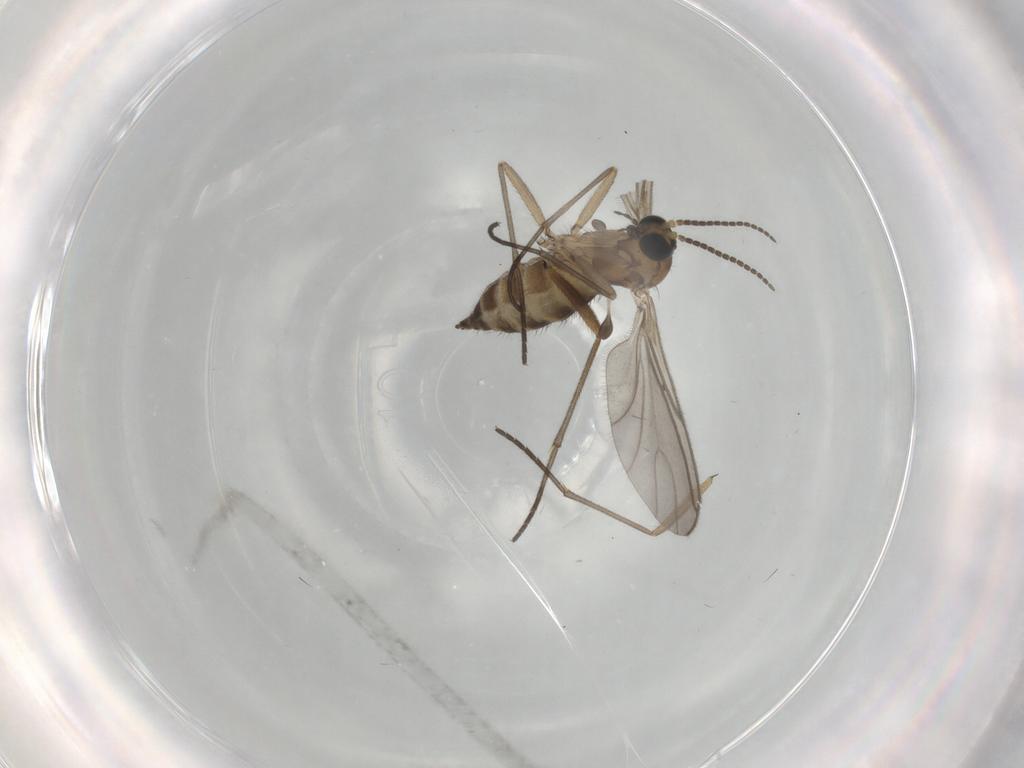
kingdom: Animalia
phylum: Arthropoda
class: Insecta
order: Diptera
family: Sciaridae
